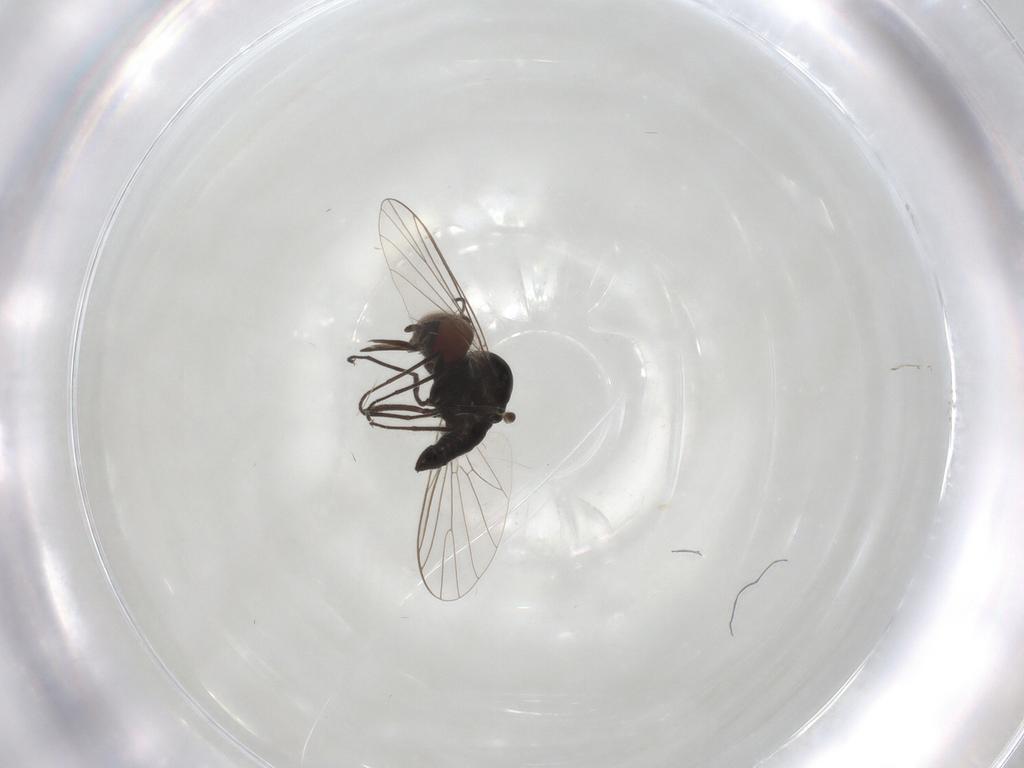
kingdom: Animalia
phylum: Arthropoda
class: Insecta
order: Diptera
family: Bombyliidae
